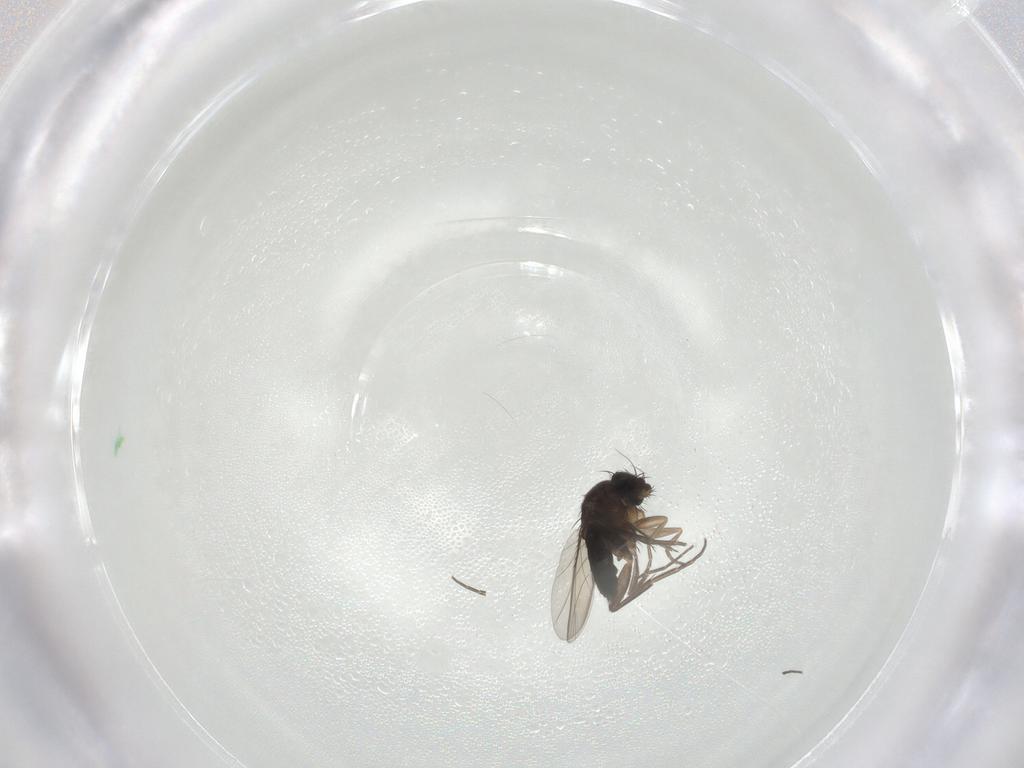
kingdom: Animalia
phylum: Arthropoda
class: Insecta
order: Diptera
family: Phoridae
